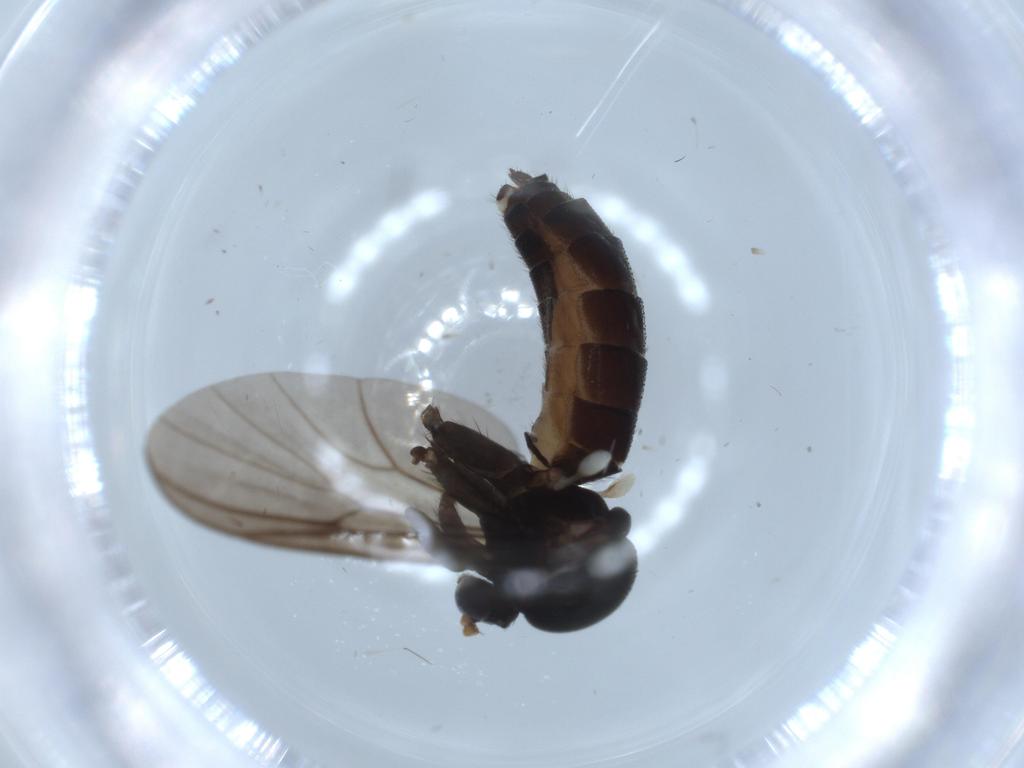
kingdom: Animalia
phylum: Arthropoda
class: Insecta
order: Diptera
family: Mycetophilidae
